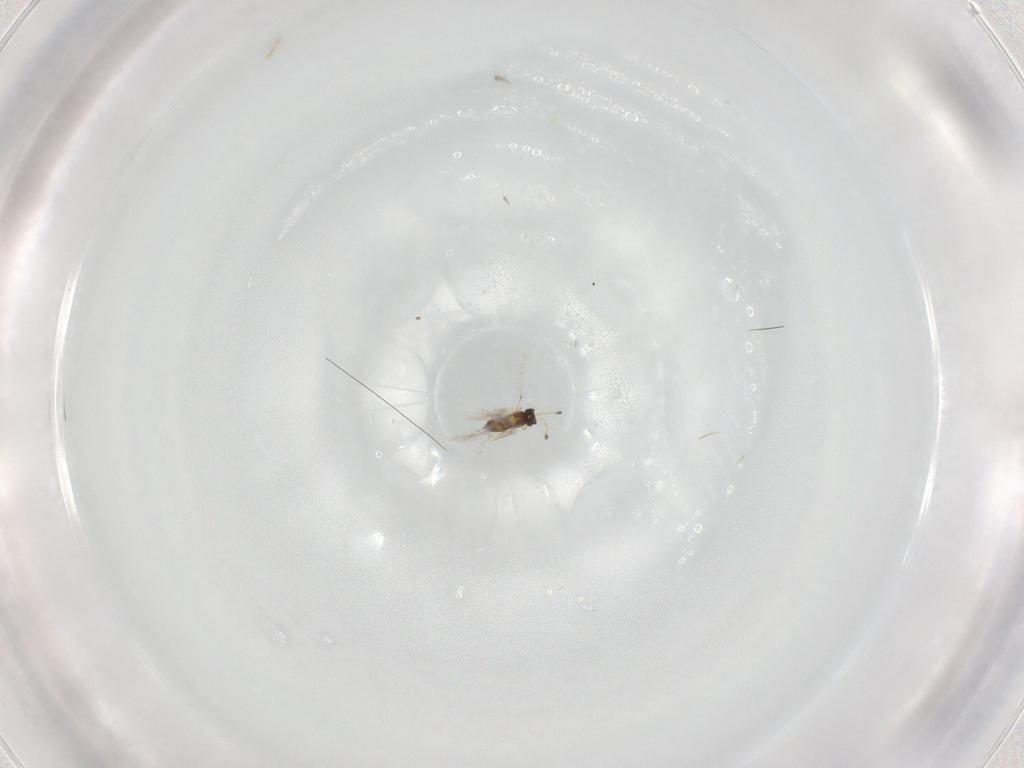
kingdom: Animalia
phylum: Arthropoda
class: Insecta
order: Hymenoptera
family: Mymaridae
